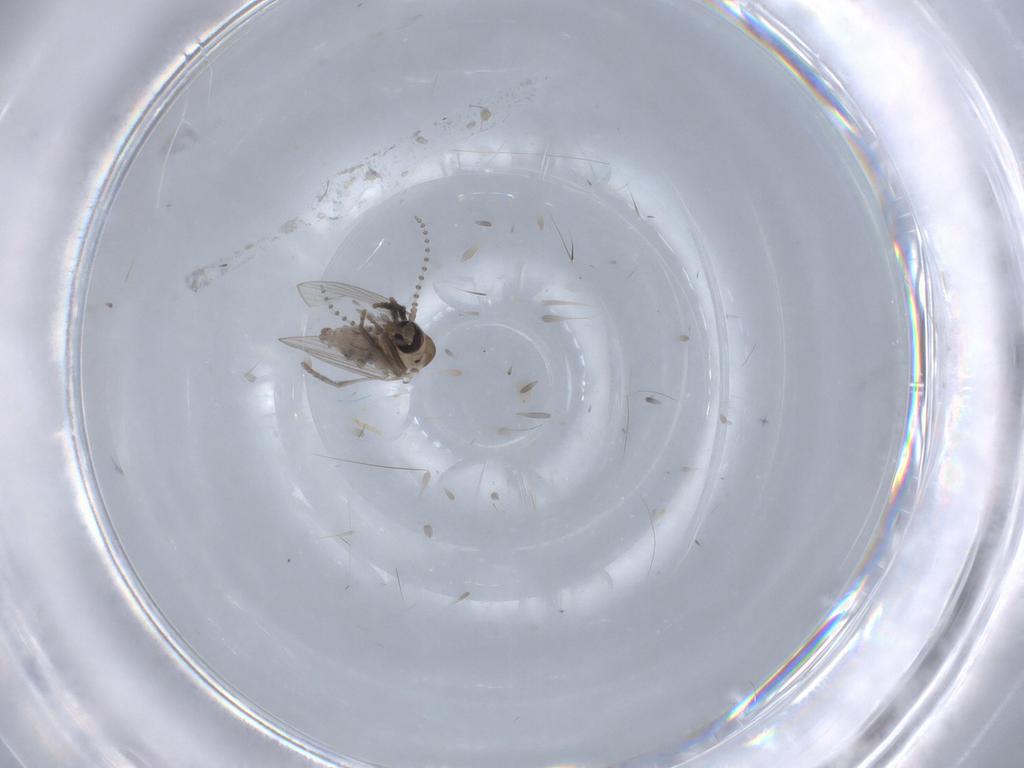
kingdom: Animalia
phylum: Arthropoda
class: Insecta
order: Diptera
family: Psychodidae
